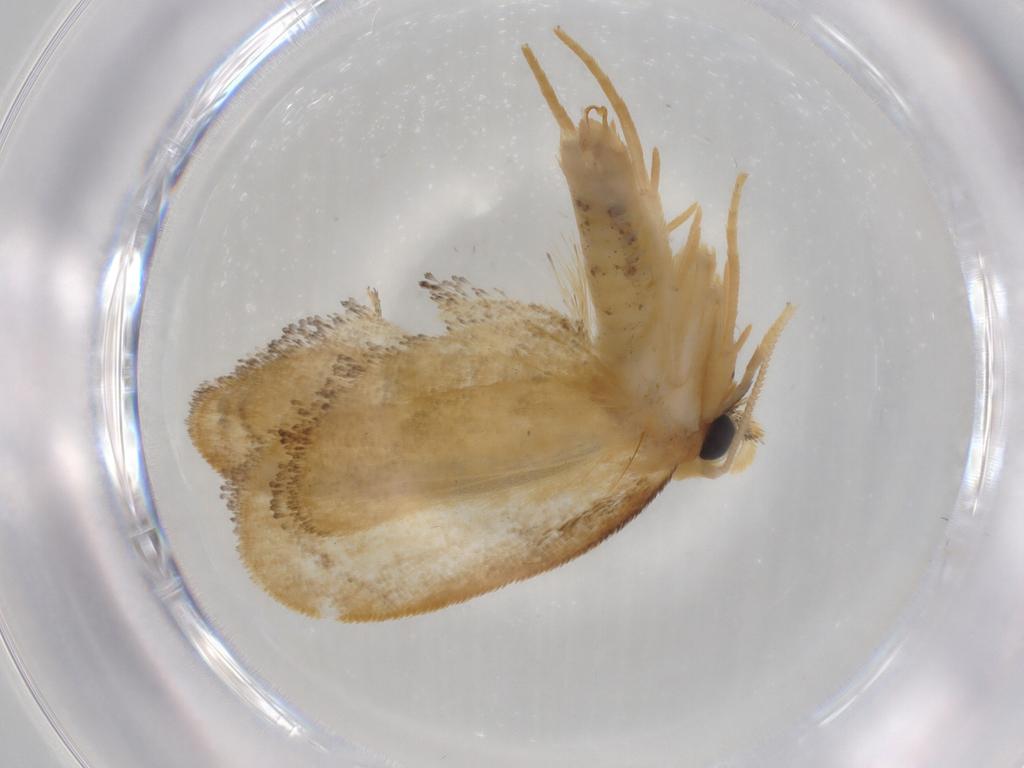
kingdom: Animalia
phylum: Arthropoda
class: Insecta
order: Lepidoptera
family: Psychidae
